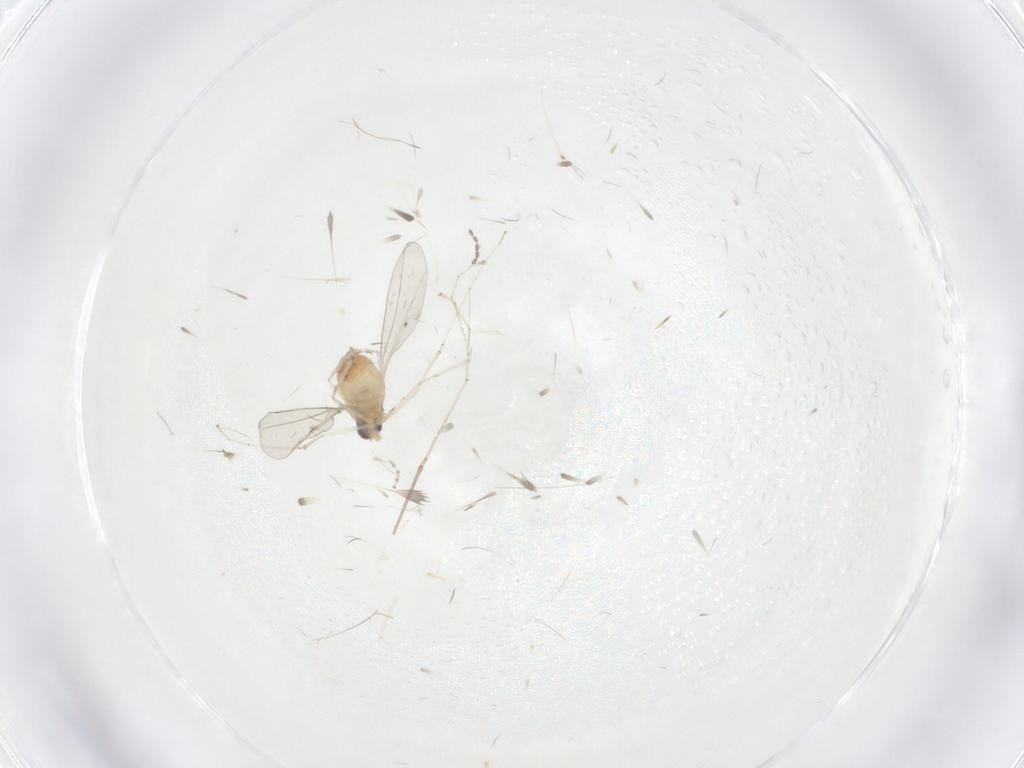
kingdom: Animalia
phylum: Arthropoda
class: Insecta
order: Diptera
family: Cecidomyiidae
